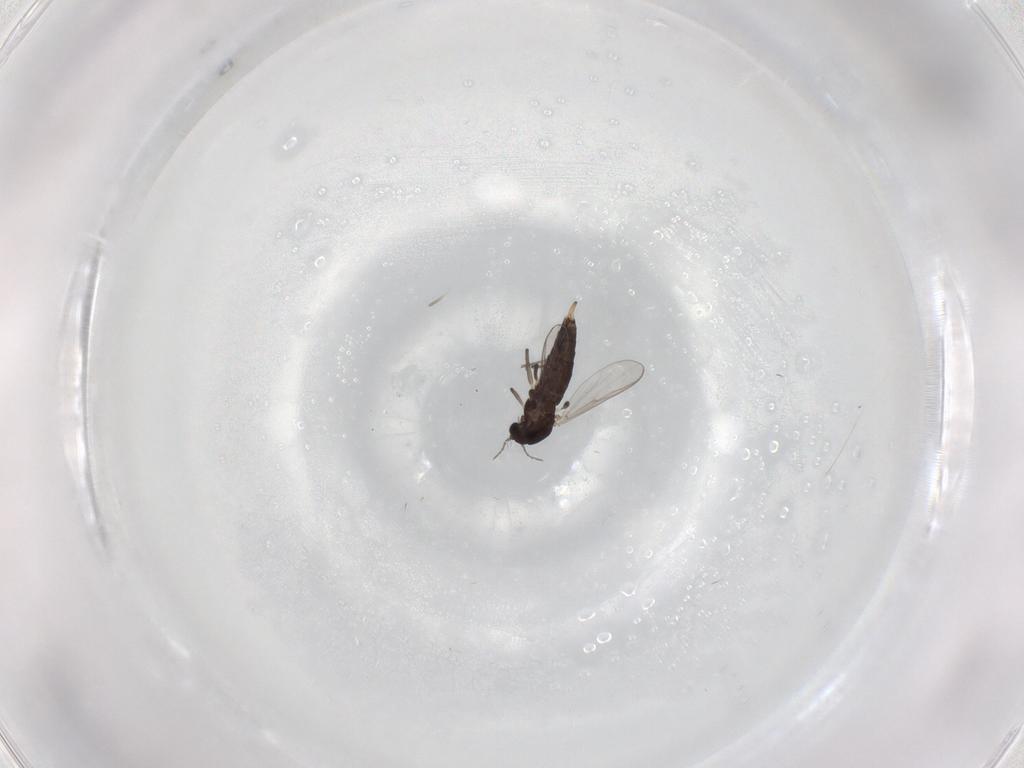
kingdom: Animalia
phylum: Arthropoda
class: Insecta
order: Diptera
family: Chironomidae
